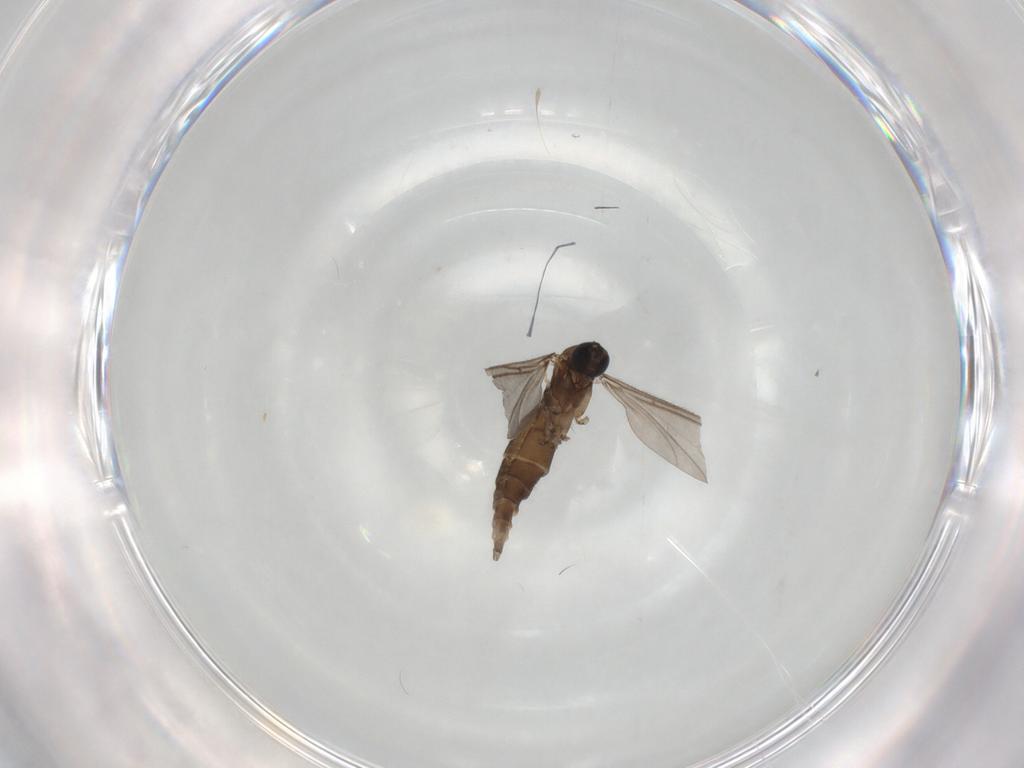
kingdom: Animalia
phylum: Arthropoda
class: Insecta
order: Diptera
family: Sciaridae
